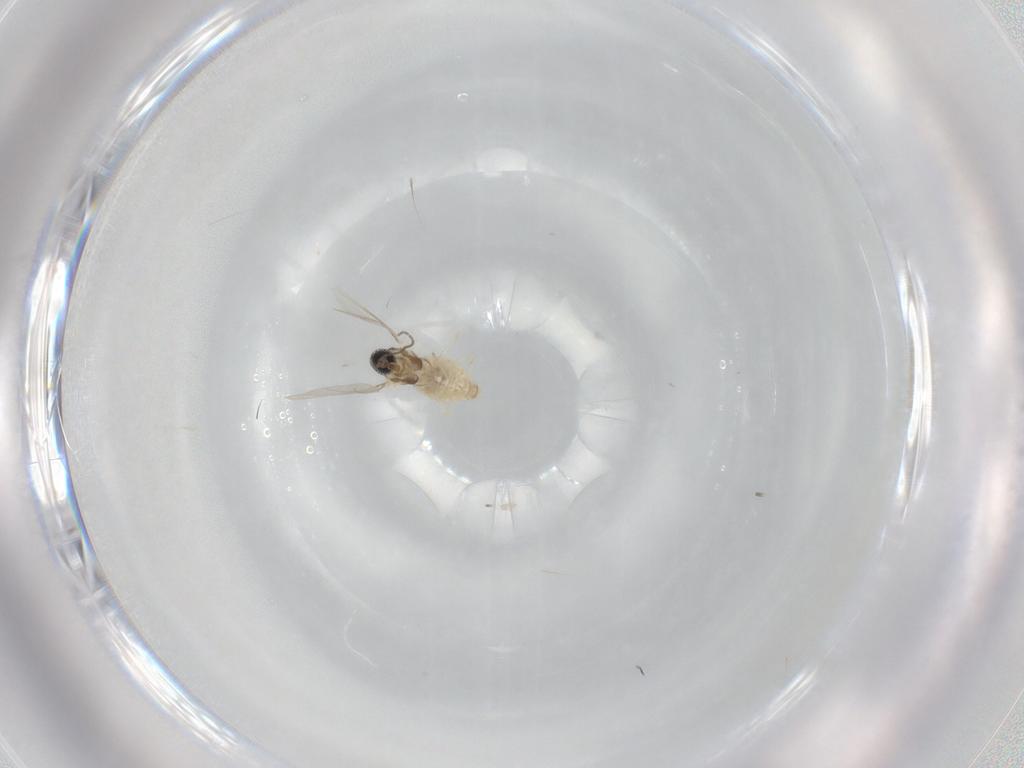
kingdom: Animalia
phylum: Arthropoda
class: Insecta
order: Diptera
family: Cecidomyiidae
